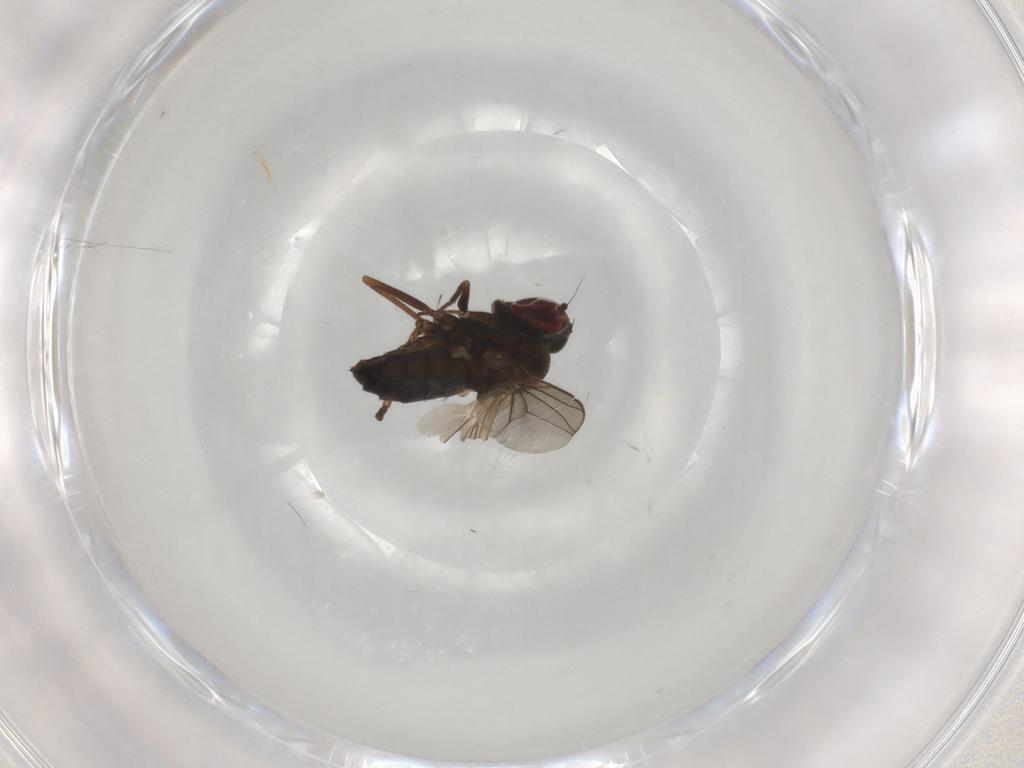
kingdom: Animalia
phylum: Arthropoda
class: Insecta
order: Diptera
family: Dolichopodidae
